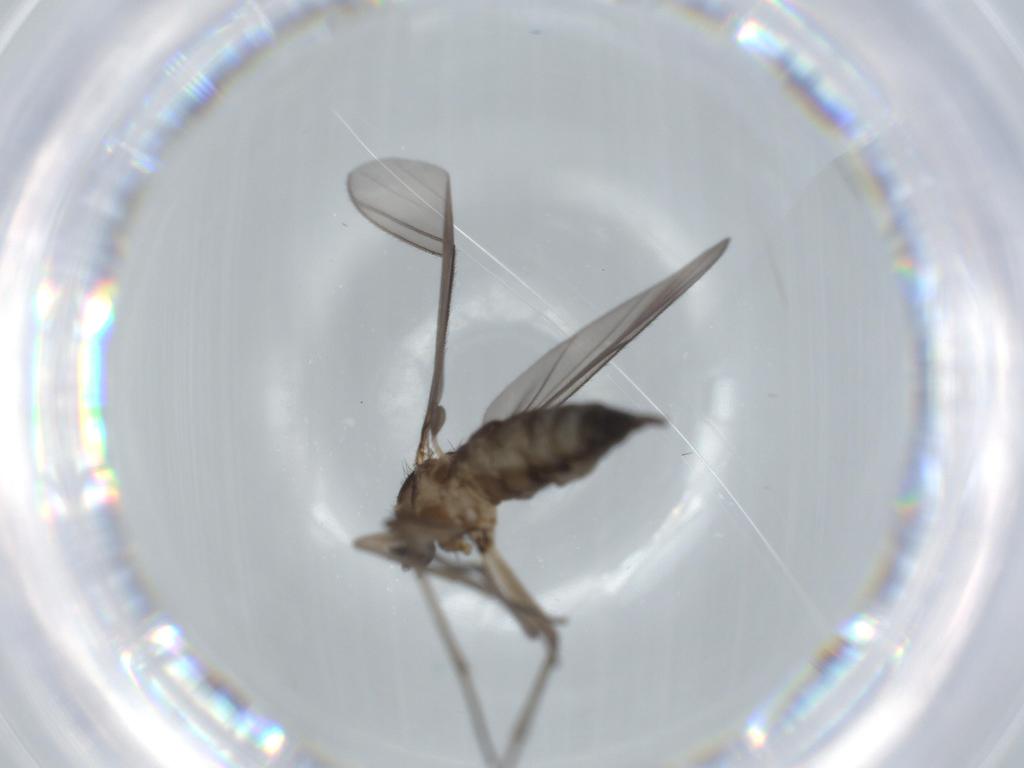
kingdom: Animalia
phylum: Arthropoda
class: Insecta
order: Diptera
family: Sciaridae
